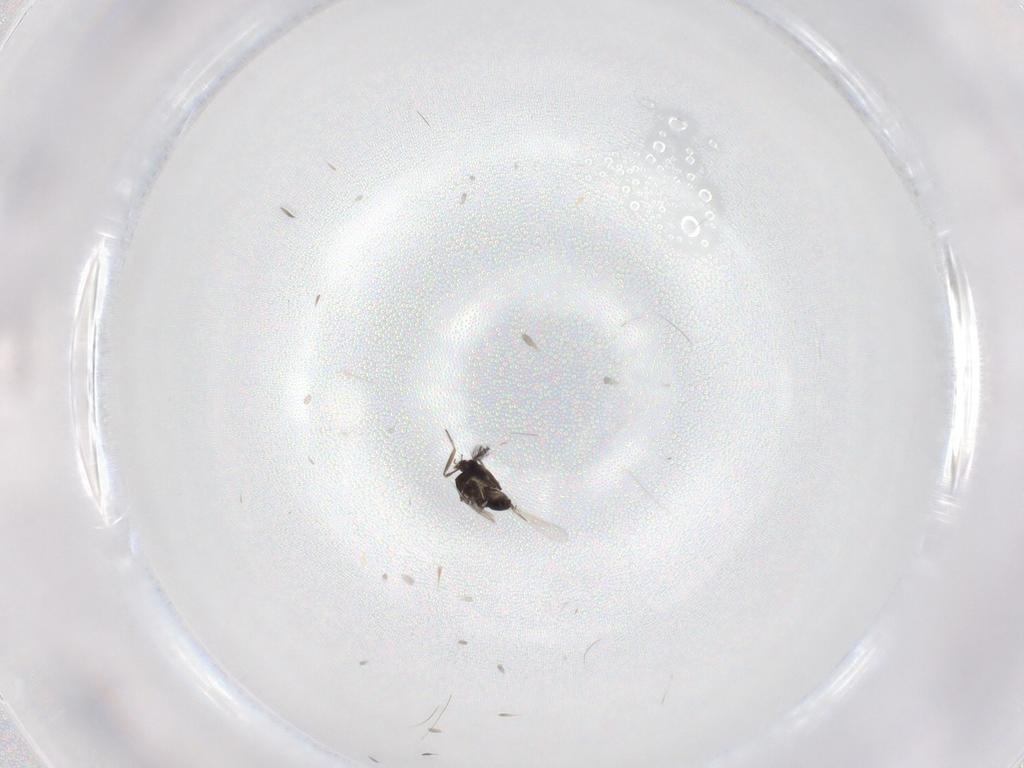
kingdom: Animalia
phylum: Arthropoda
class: Insecta
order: Diptera
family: Ceratopogonidae
